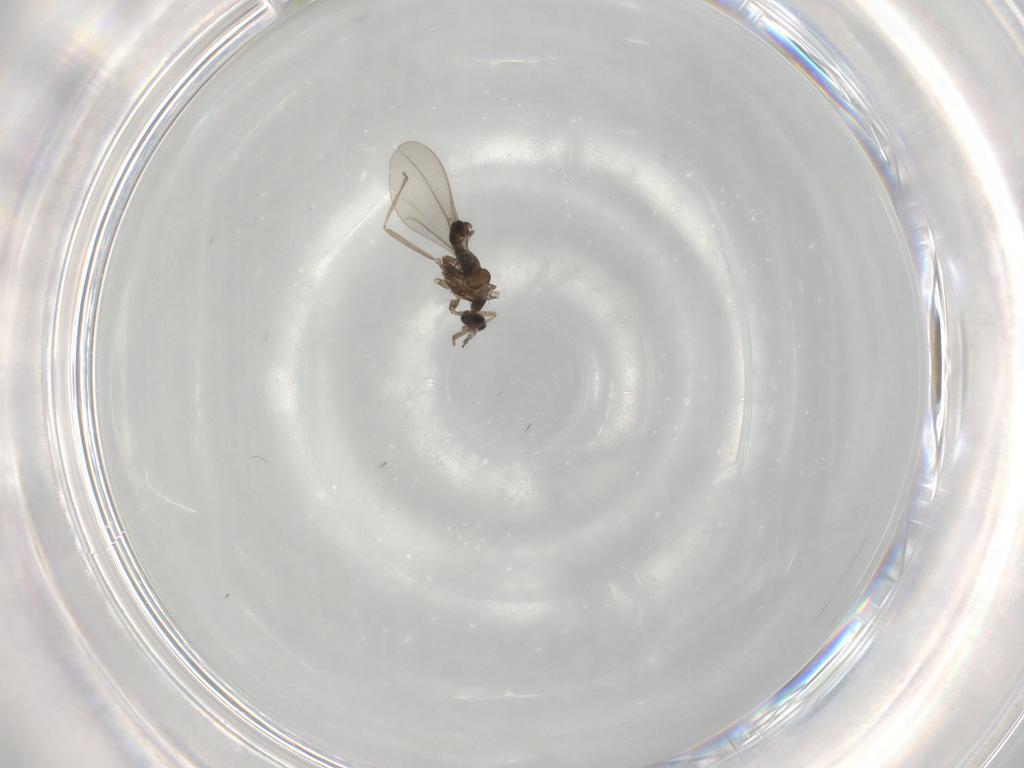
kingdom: Animalia
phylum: Arthropoda
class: Insecta
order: Diptera
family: Cecidomyiidae
